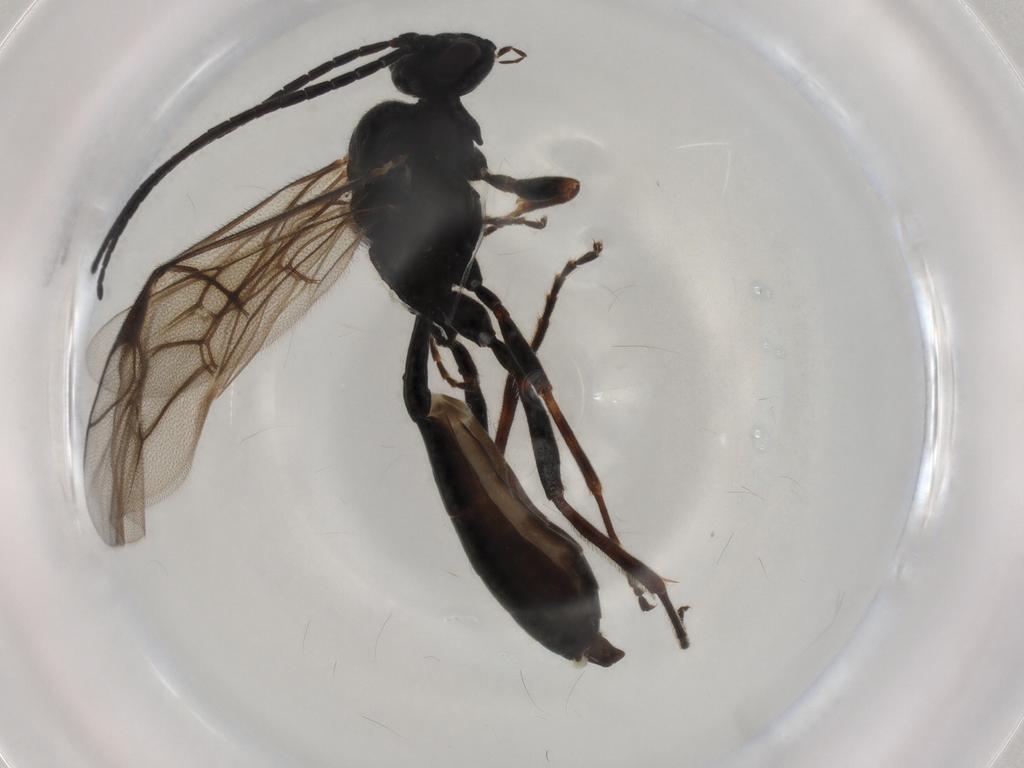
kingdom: Animalia
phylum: Arthropoda
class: Insecta
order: Hymenoptera
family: Ichneumonidae
